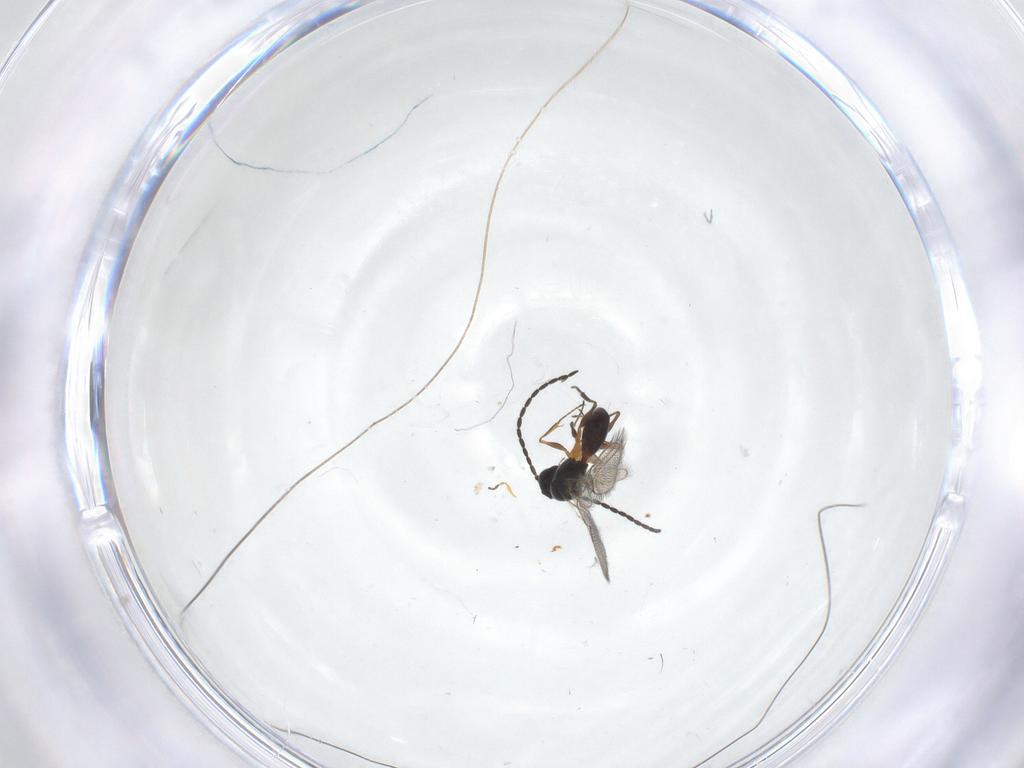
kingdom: Animalia
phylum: Arthropoda
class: Insecta
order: Hymenoptera
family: Figitidae
